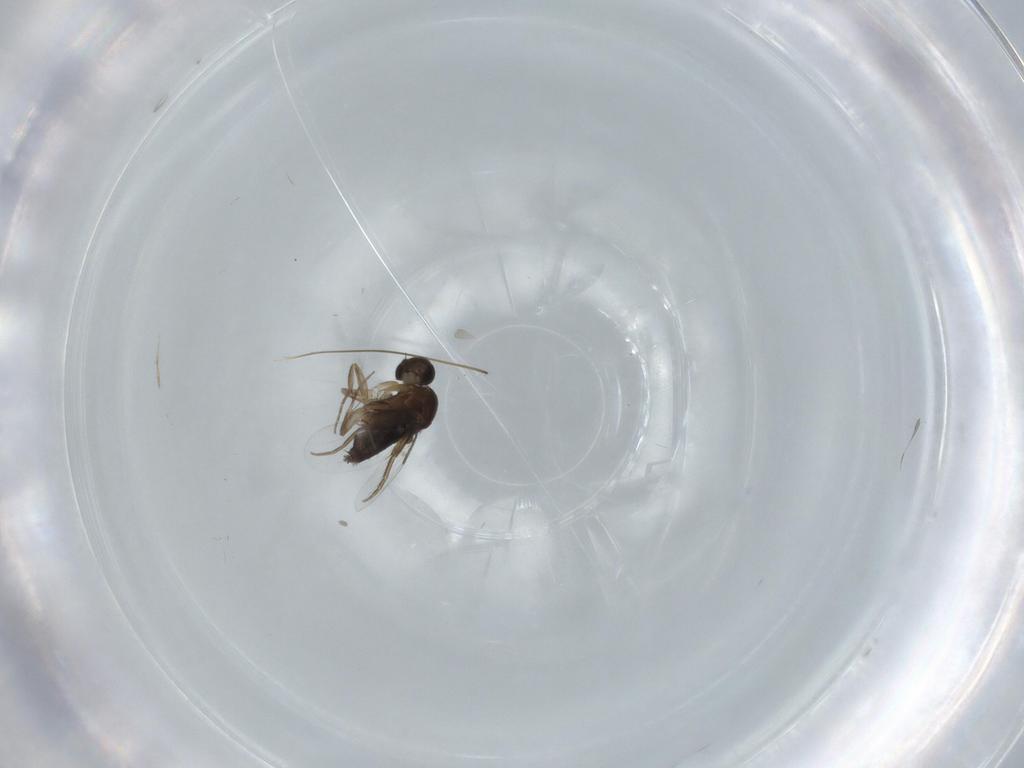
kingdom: Animalia
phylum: Arthropoda
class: Insecta
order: Diptera
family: Phoridae
